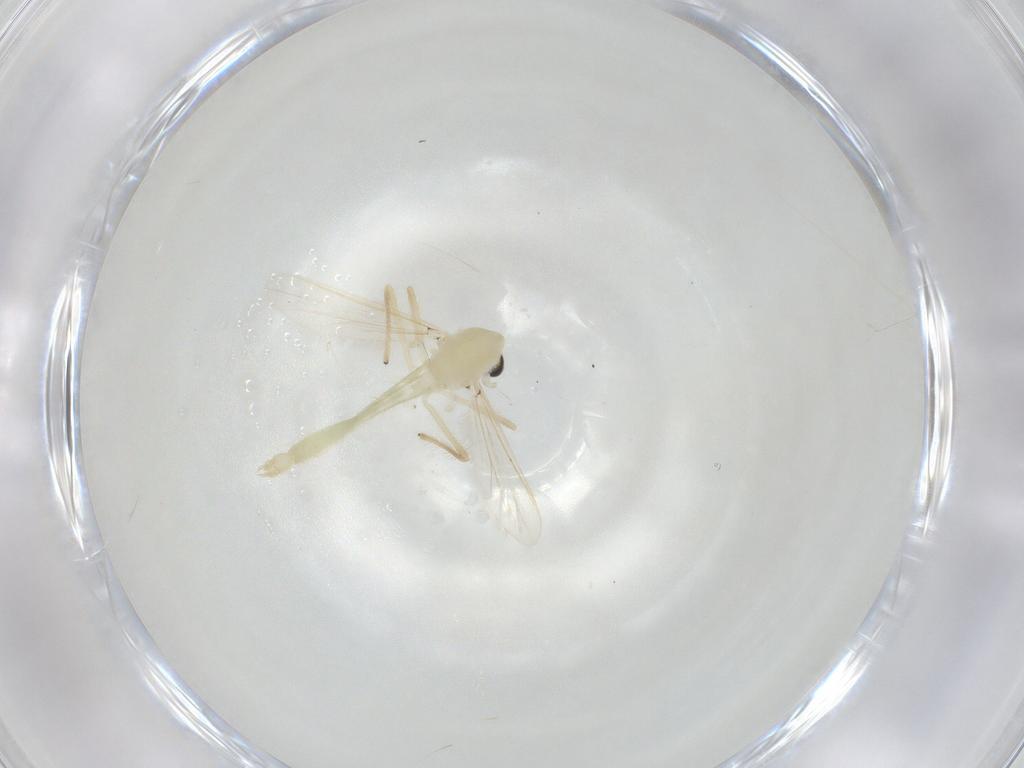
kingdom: Animalia
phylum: Arthropoda
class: Insecta
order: Diptera
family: Chironomidae
